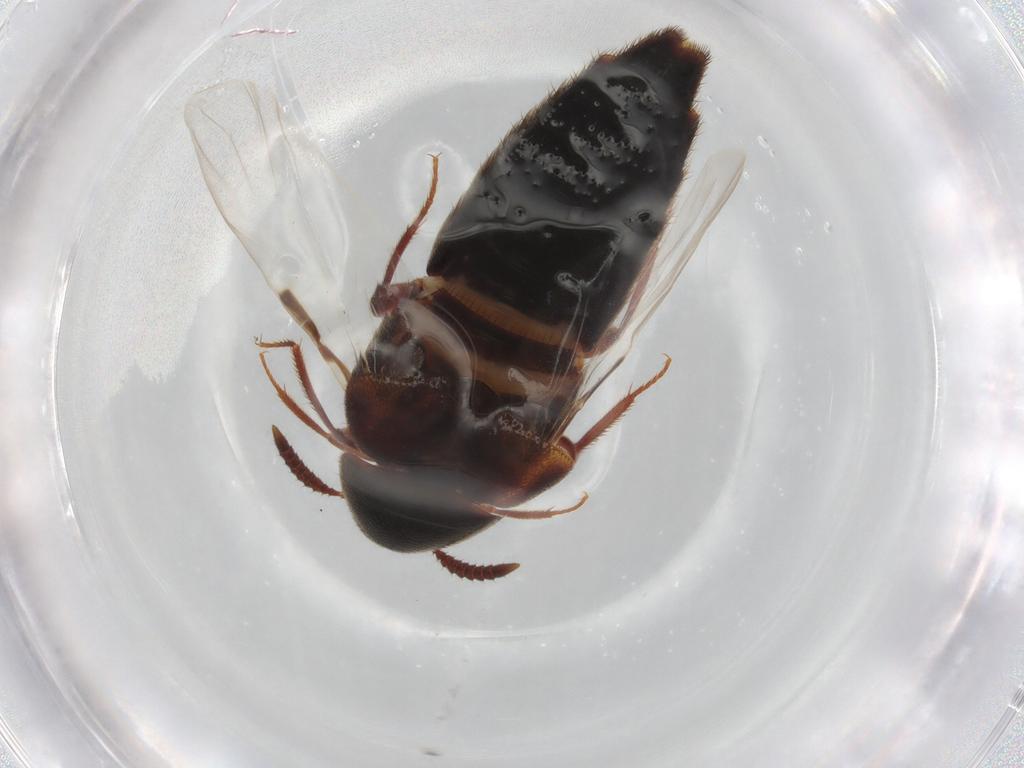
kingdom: Animalia
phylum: Arthropoda
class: Insecta
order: Coleoptera
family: Staphylinidae
